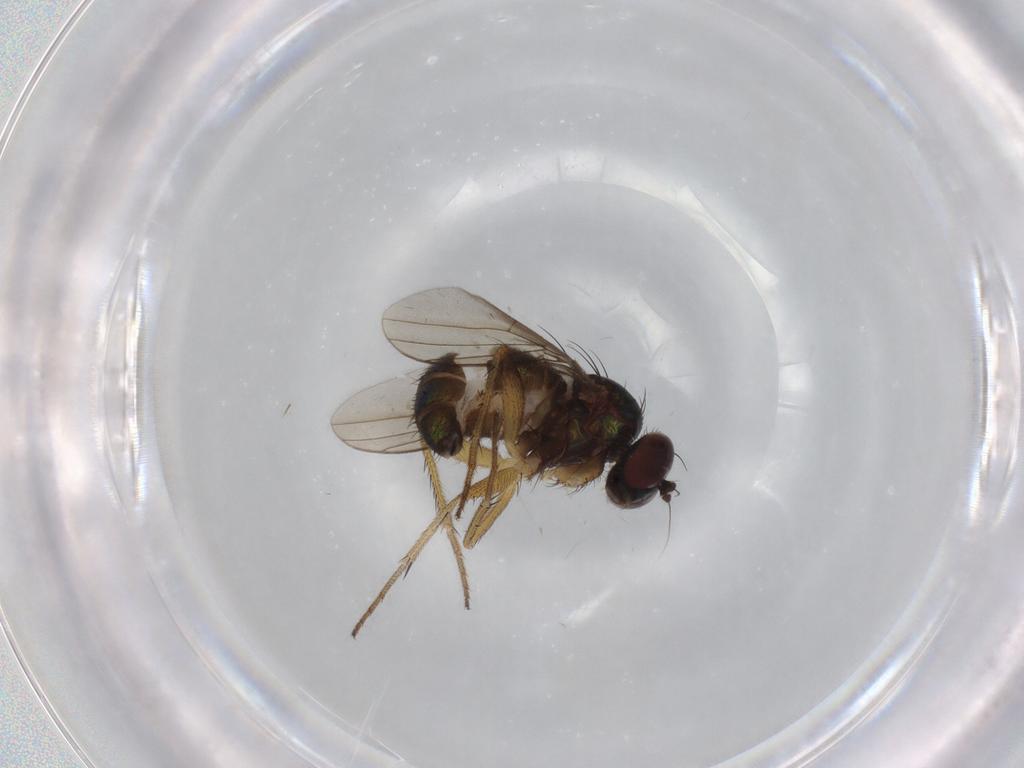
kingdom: Animalia
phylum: Arthropoda
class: Insecta
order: Diptera
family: Dolichopodidae
